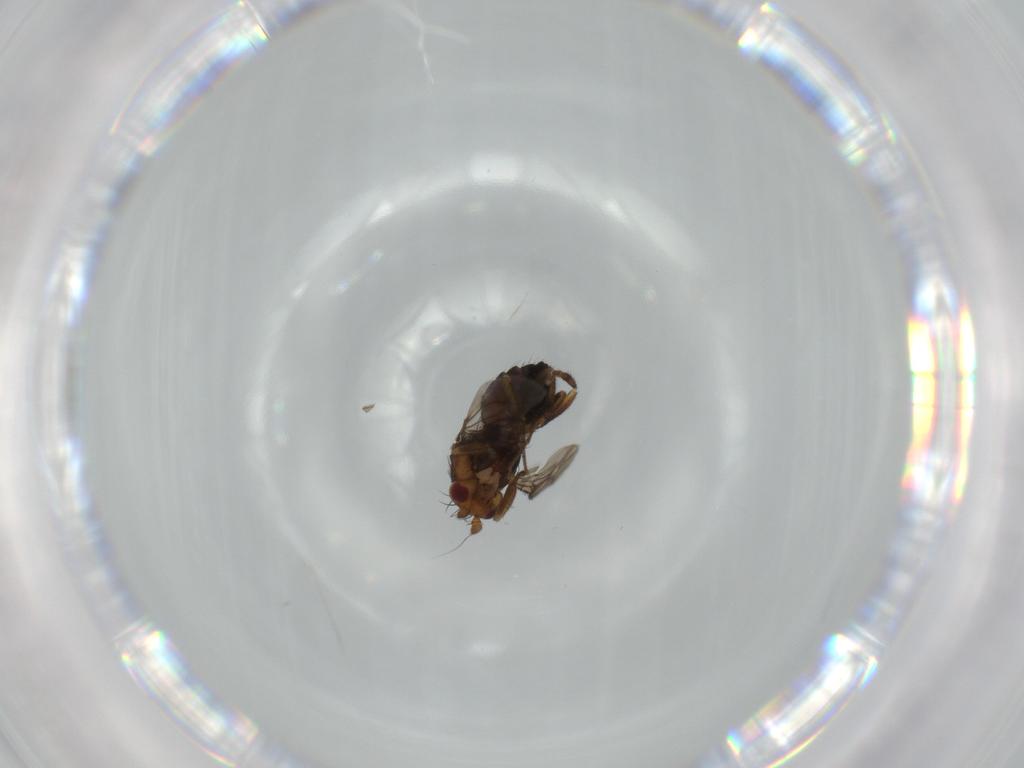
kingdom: Animalia
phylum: Arthropoda
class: Insecta
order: Diptera
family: Sphaeroceridae
